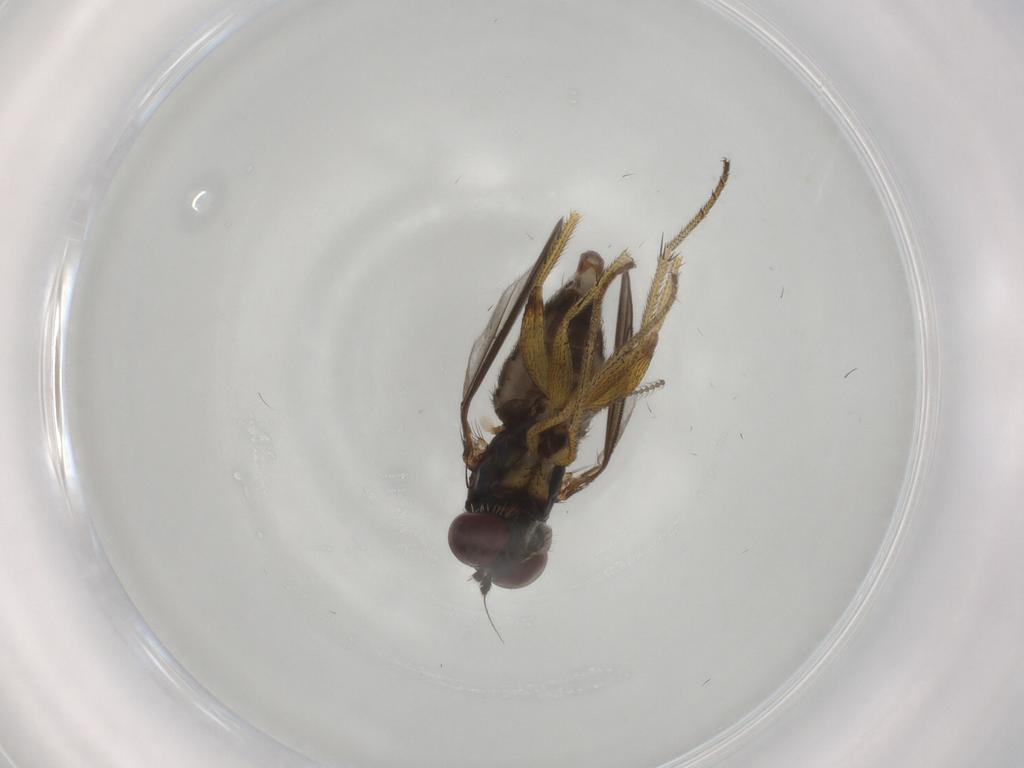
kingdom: Animalia
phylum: Arthropoda
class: Insecta
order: Diptera
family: Dolichopodidae
